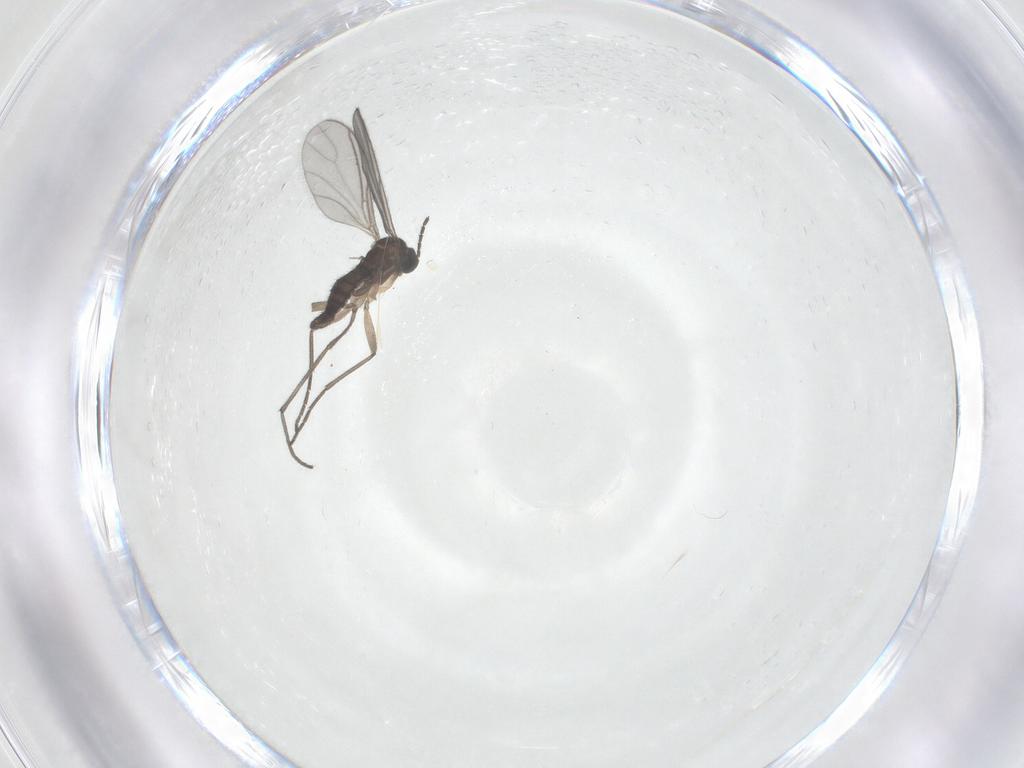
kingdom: Animalia
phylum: Arthropoda
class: Insecta
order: Diptera
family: Sciaridae
